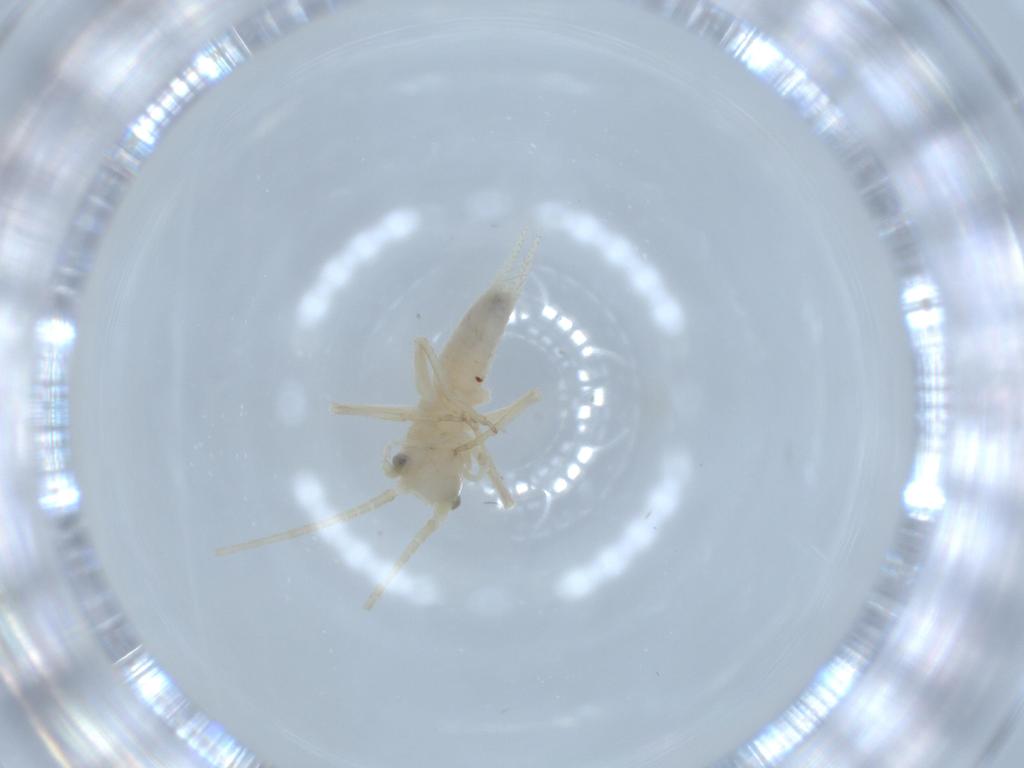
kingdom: Animalia
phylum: Arthropoda
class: Insecta
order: Orthoptera
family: Trigonidiidae
